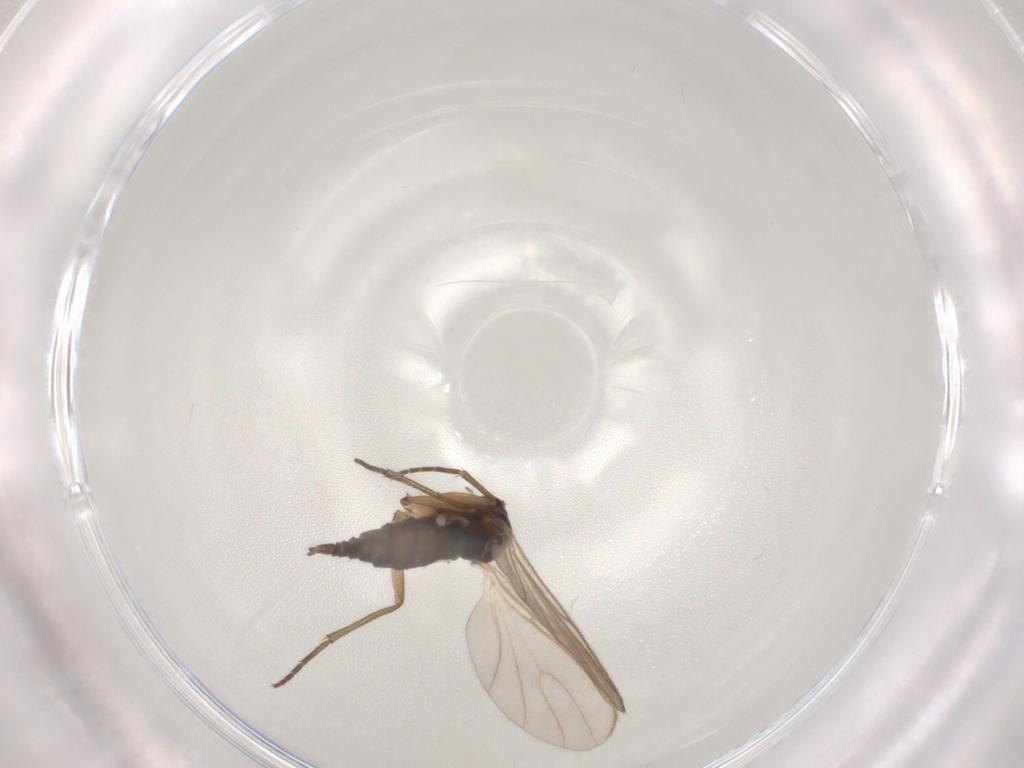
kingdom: Animalia
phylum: Arthropoda
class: Insecta
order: Diptera
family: Sciaridae
